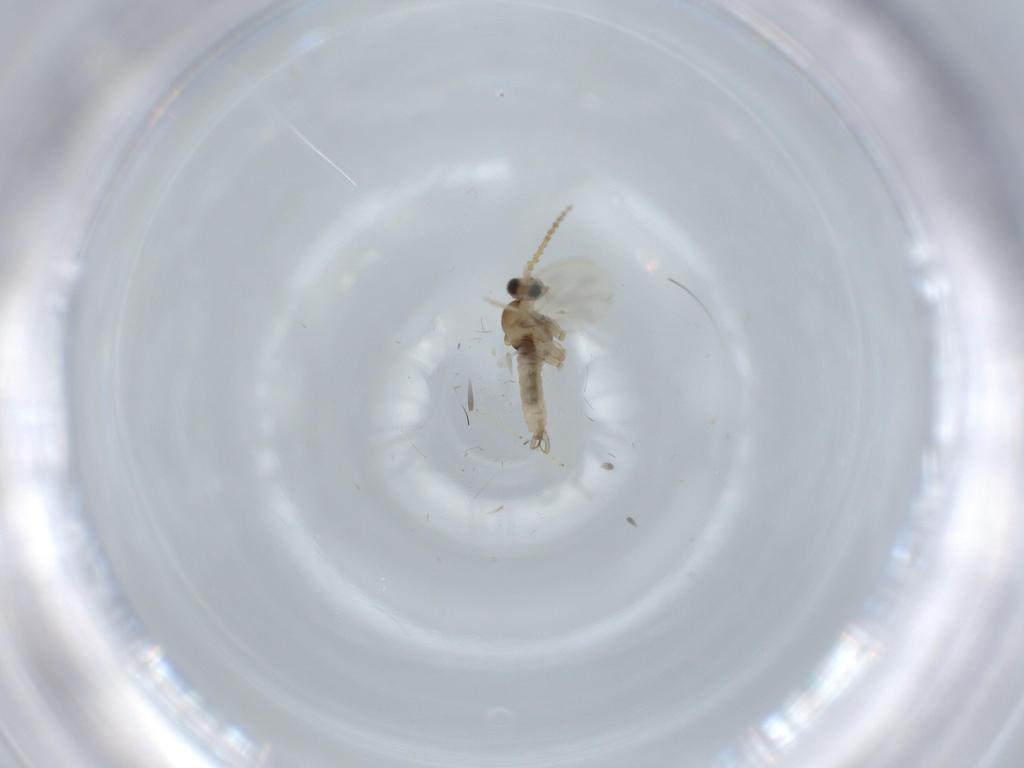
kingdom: Animalia
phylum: Arthropoda
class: Insecta
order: Diptera
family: Cecidomyiidae
